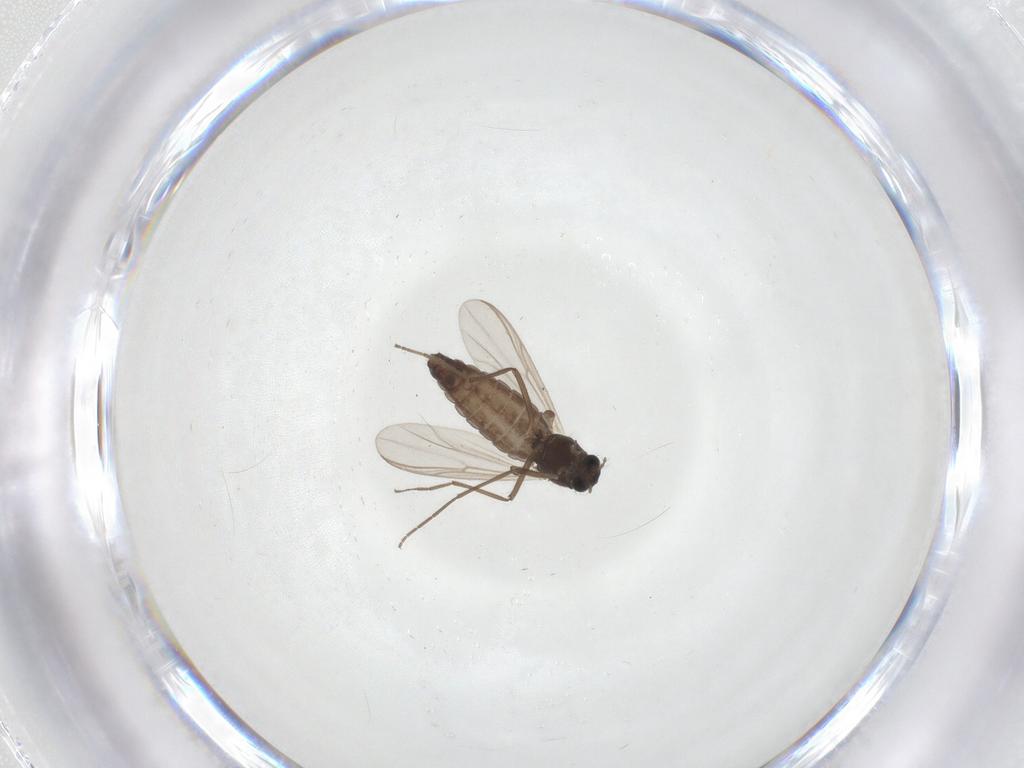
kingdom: Animalia
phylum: Arthropoda
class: Insecta
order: Diptera
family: Chironomidae
